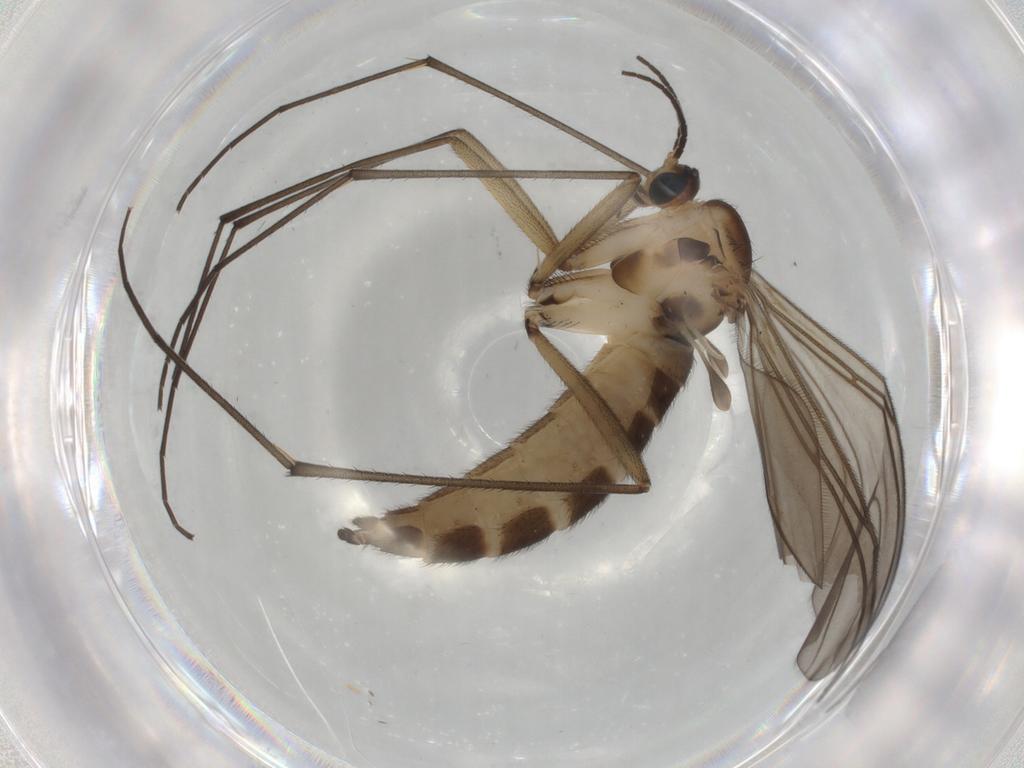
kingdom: Animalia
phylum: Arthropoda
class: Insecta
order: Diptera
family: Sciaridae
